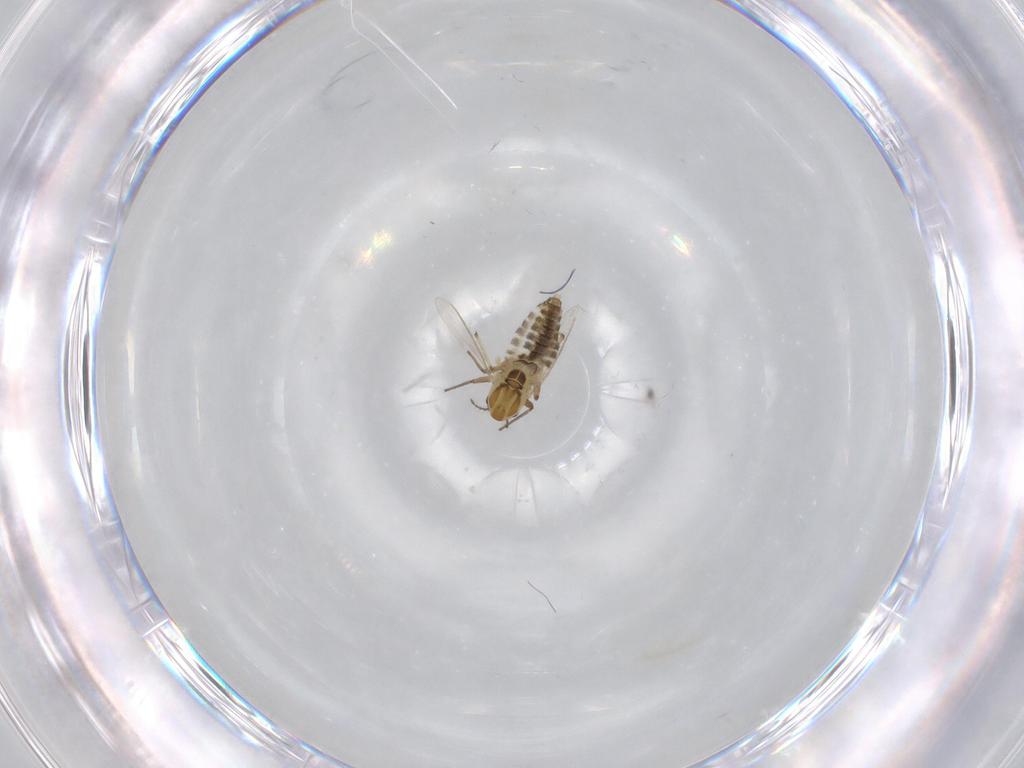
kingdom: Animalia
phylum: Arthropoda
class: Insecta
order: Diptera
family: Chironomidae
